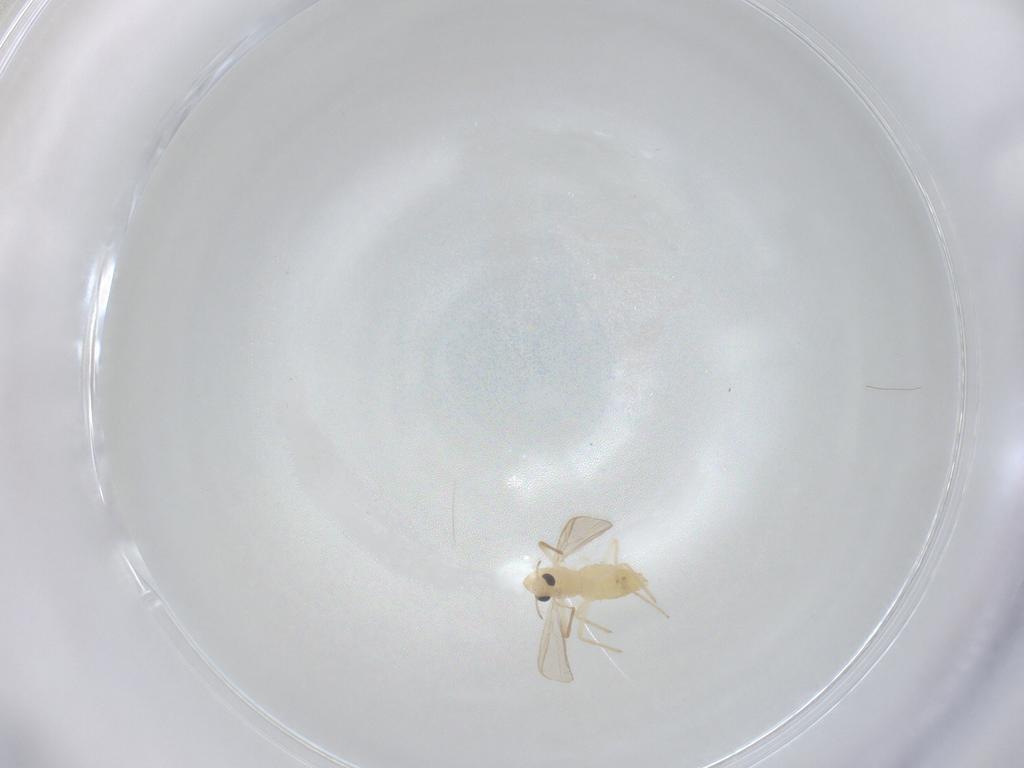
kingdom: Animalia
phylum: Arthropoda
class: Insecta
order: Diptera
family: Chironomidae
